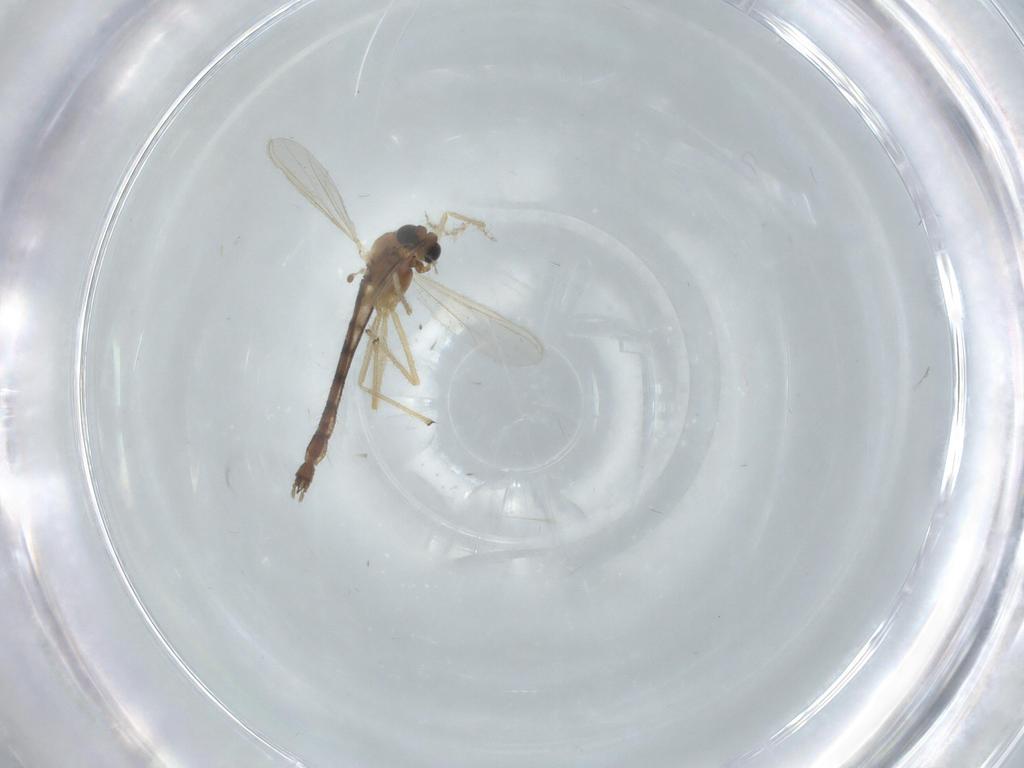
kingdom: Animalia
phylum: Arthropoda
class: Insecta
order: Diptera
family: Chironomidae
